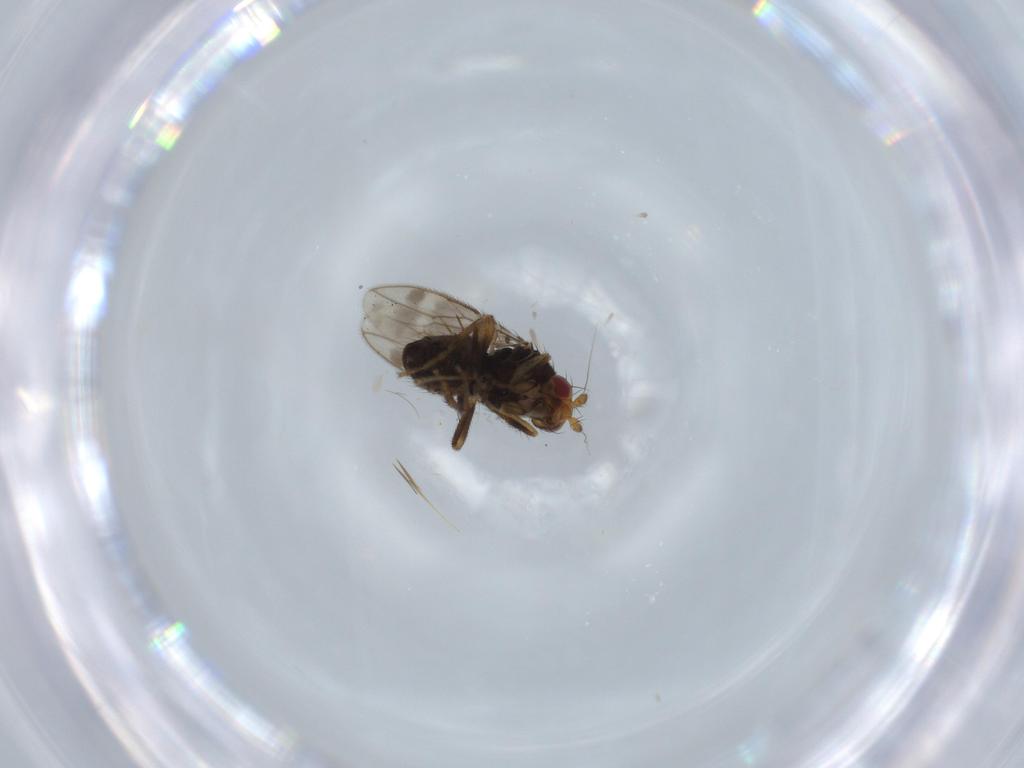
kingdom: Animalia
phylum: Arthropoda
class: Insecta
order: Diptera
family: Sphaeroceridae
